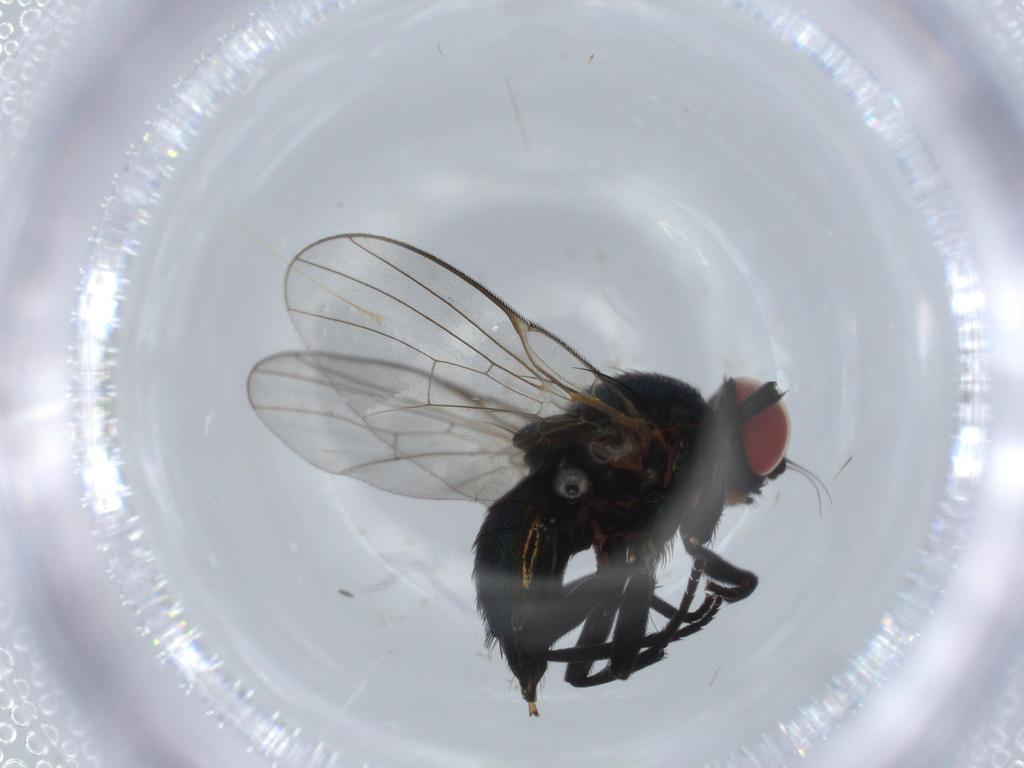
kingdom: Animalia
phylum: Arthropoda
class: Insecta
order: Diptera
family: Agromyzidae
